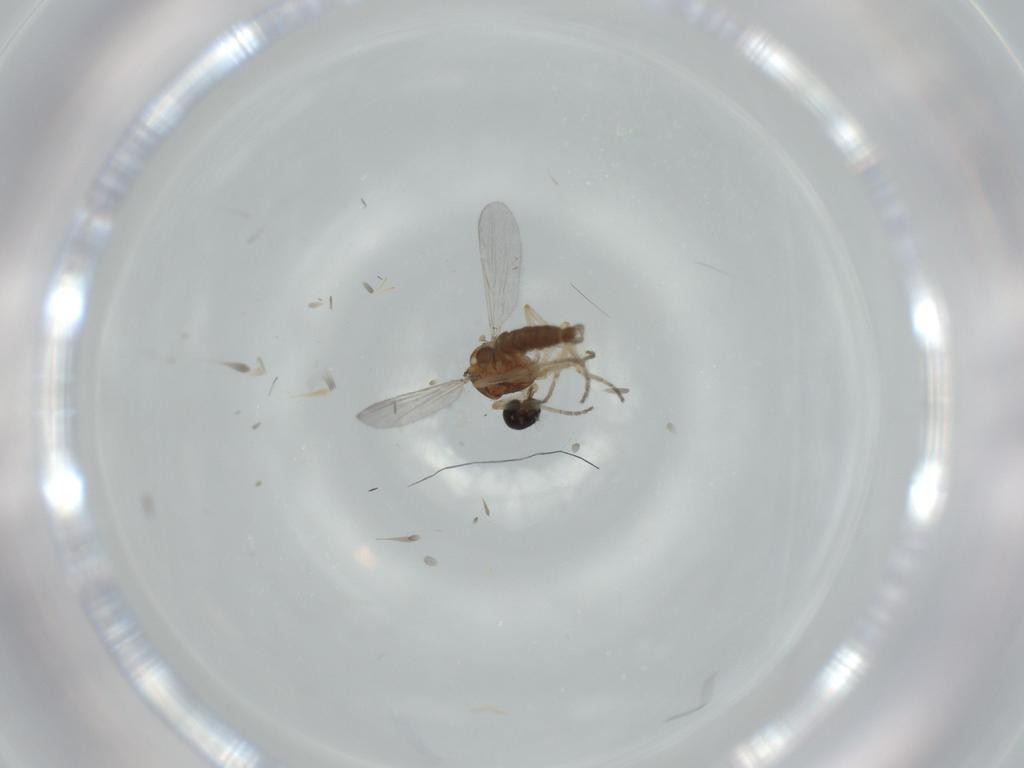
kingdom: Animalia
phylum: Arthropoda
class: Insecta
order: Diptera
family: Ceratopogonidae
